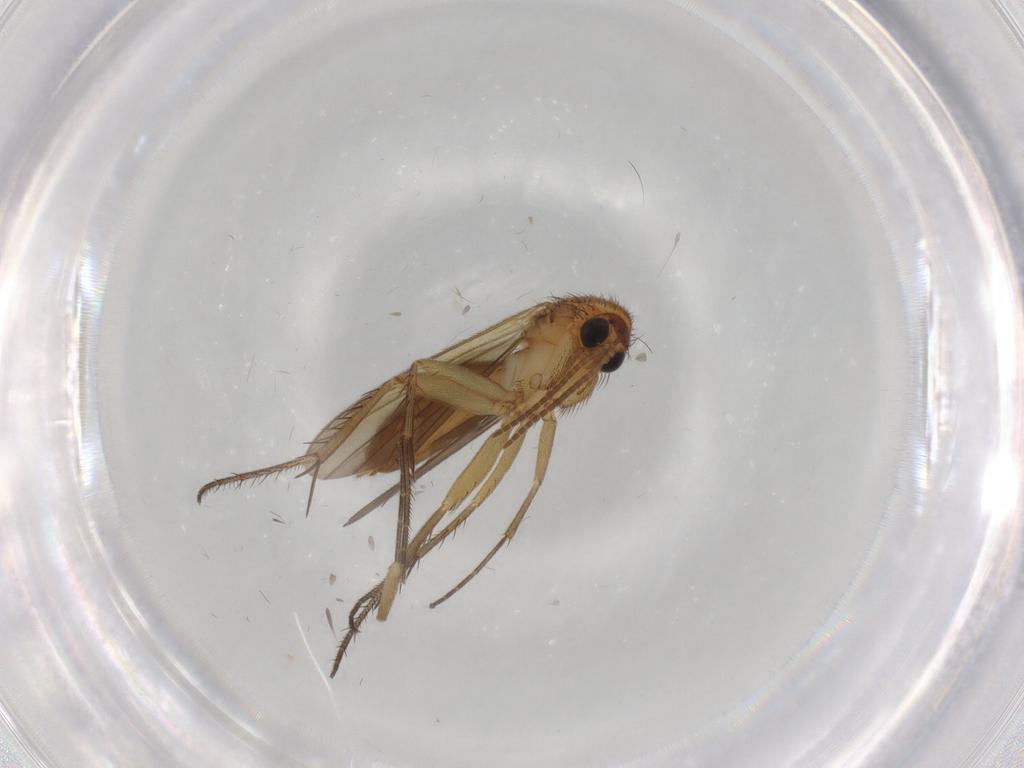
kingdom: Animalia
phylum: Arthropoda
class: Insecta
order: Diptera
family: Mycetophilidae
